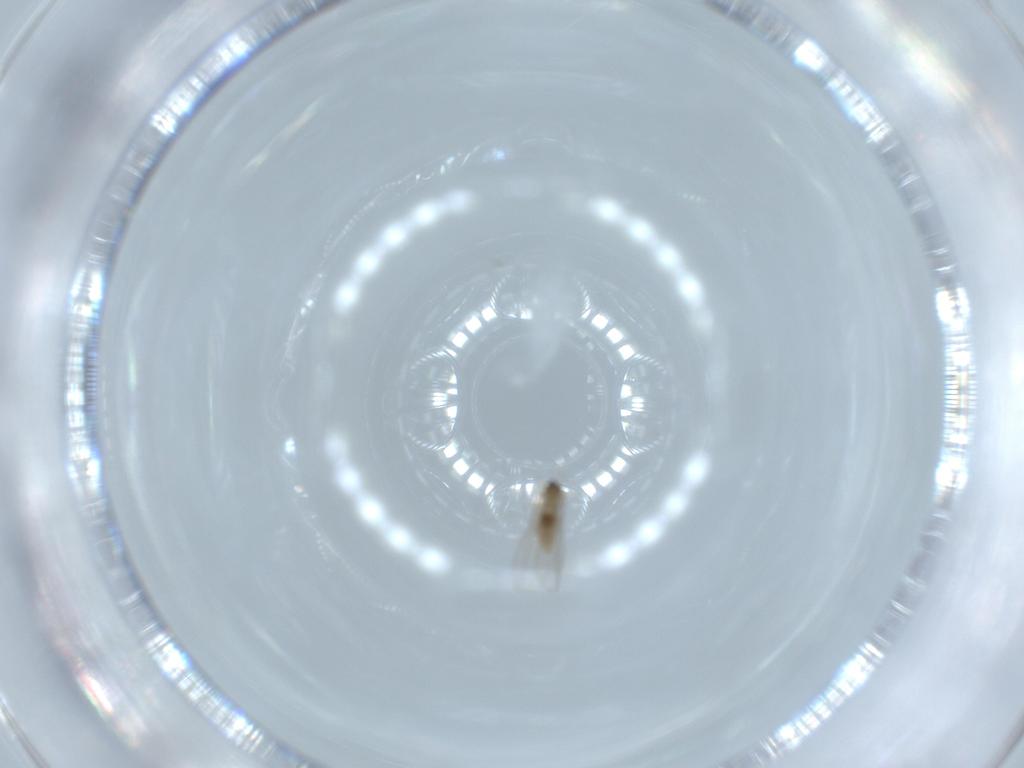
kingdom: Animalia
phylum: Arthropoda
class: Insecta
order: Diptera
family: Cecidomyiidae
